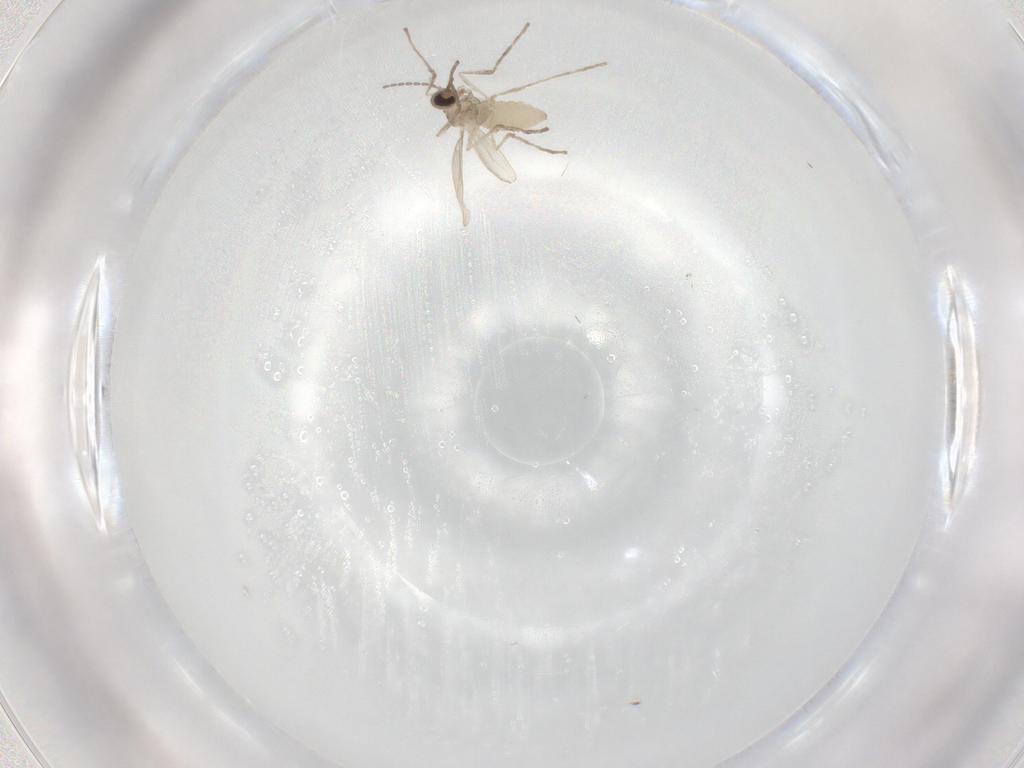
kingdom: Animalia
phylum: Arthropoda
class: Insecta
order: Diptera
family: Cecidomyiidae
